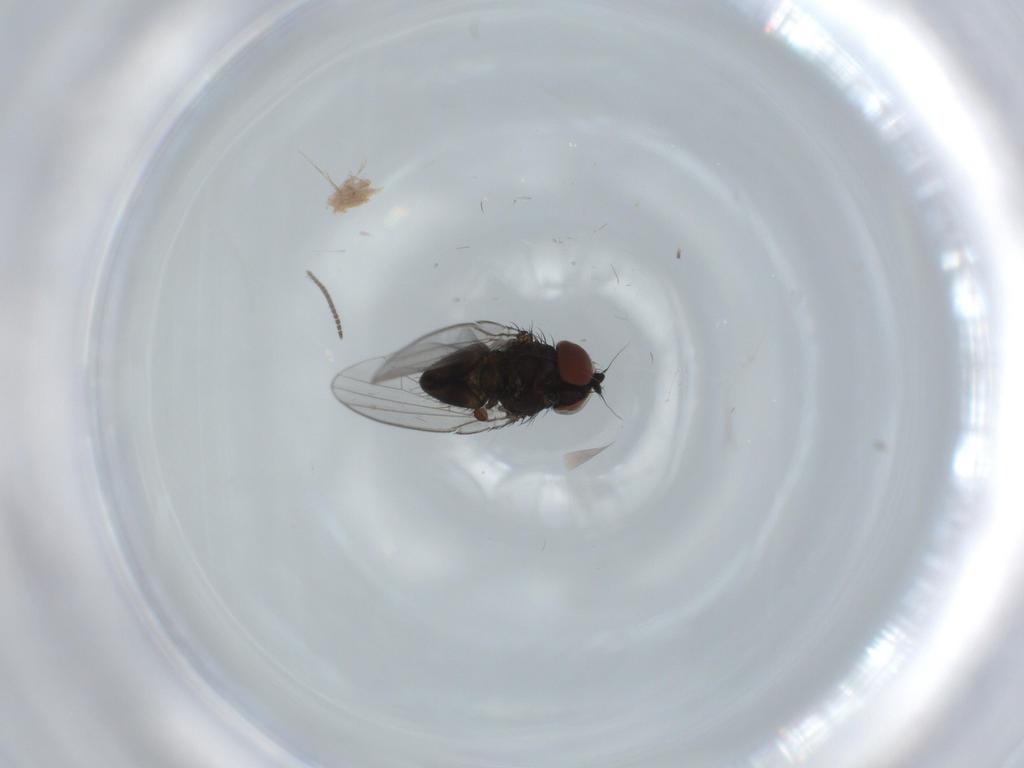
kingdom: Animalia
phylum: Arthropoda
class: Insecta
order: Diptera
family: Milichiidae
